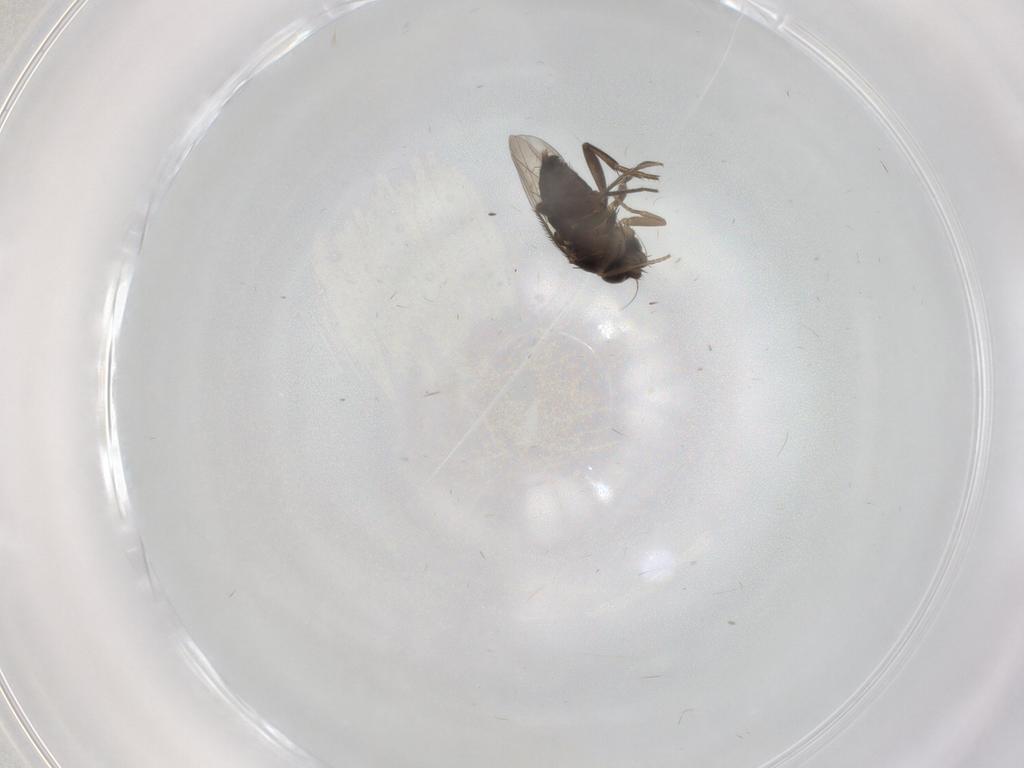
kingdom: Animalia
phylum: Arthropoda
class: Insecta
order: Diptera
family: Phoridae
